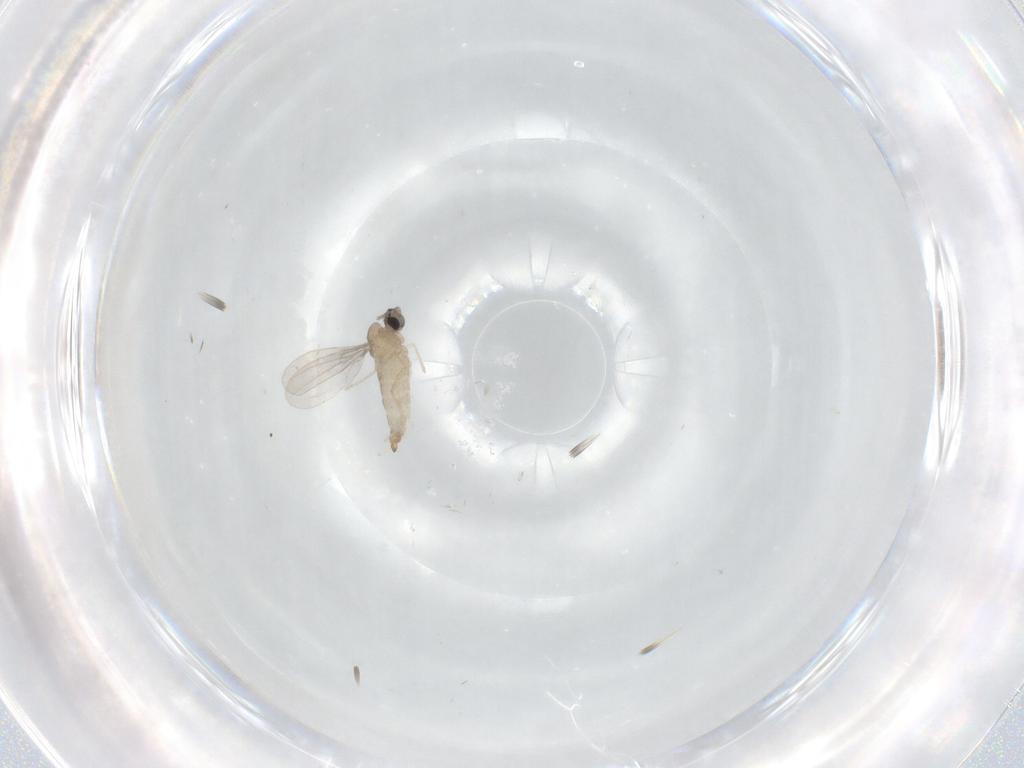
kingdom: Animalia
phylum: Arthropoda
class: Insecta
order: Diptera
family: Cecidomyiidae
